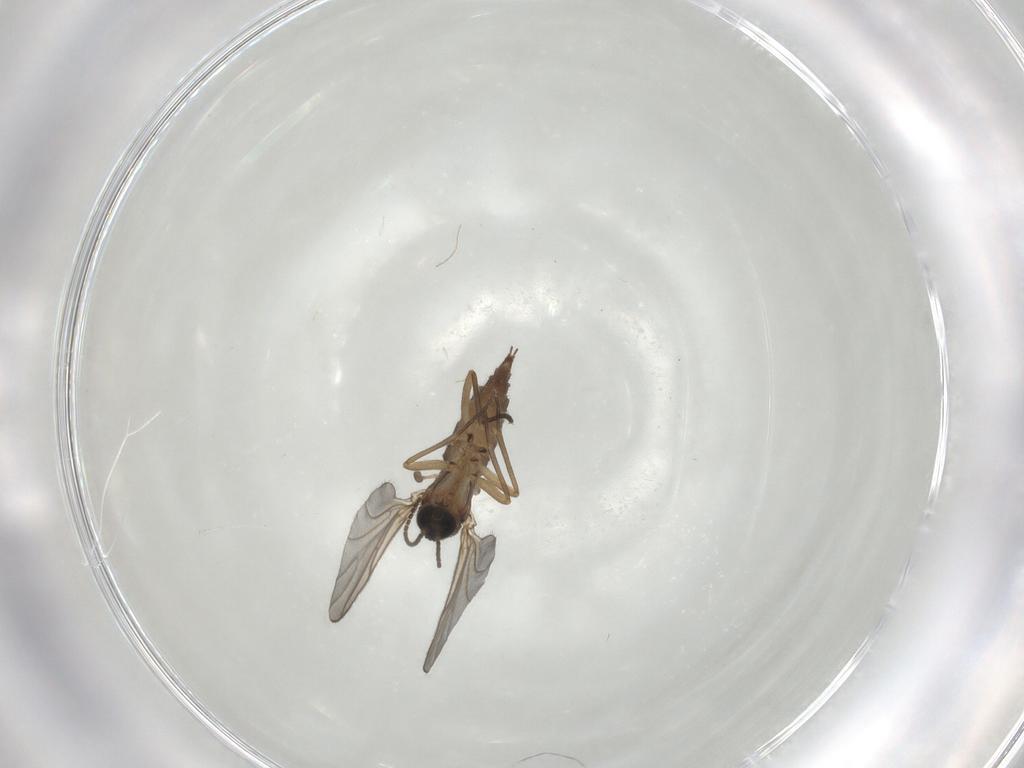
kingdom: Animalia
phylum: Arthropoda
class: Insecta
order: Diptera
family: Sciaridae
